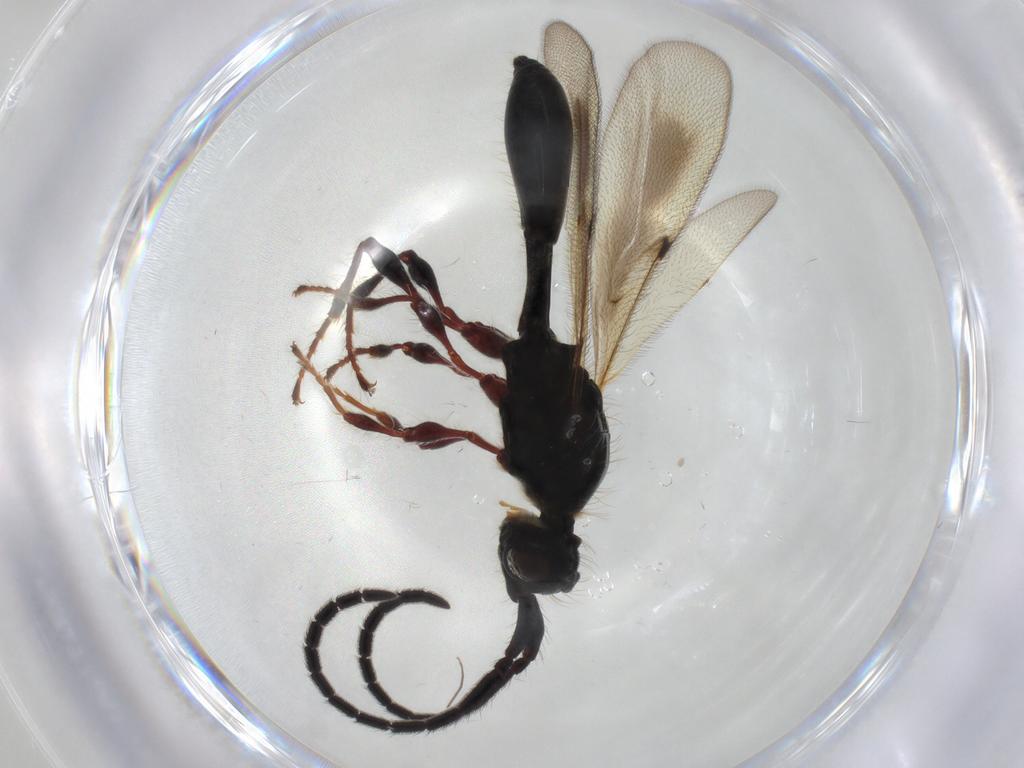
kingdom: Animalia
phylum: Arthropoda
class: Insecta
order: Hymenoptera
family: Diapriidae
